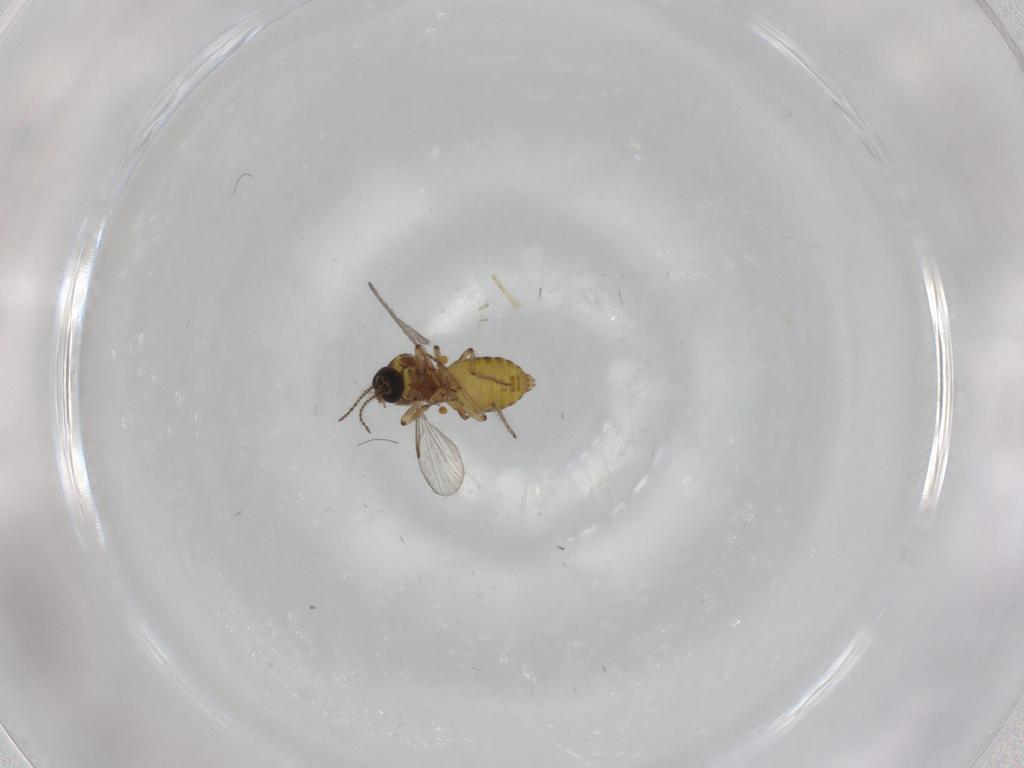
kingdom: Animalia
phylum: Arthropoda
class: Insecta
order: Diptera
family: Ceratopogonidae
